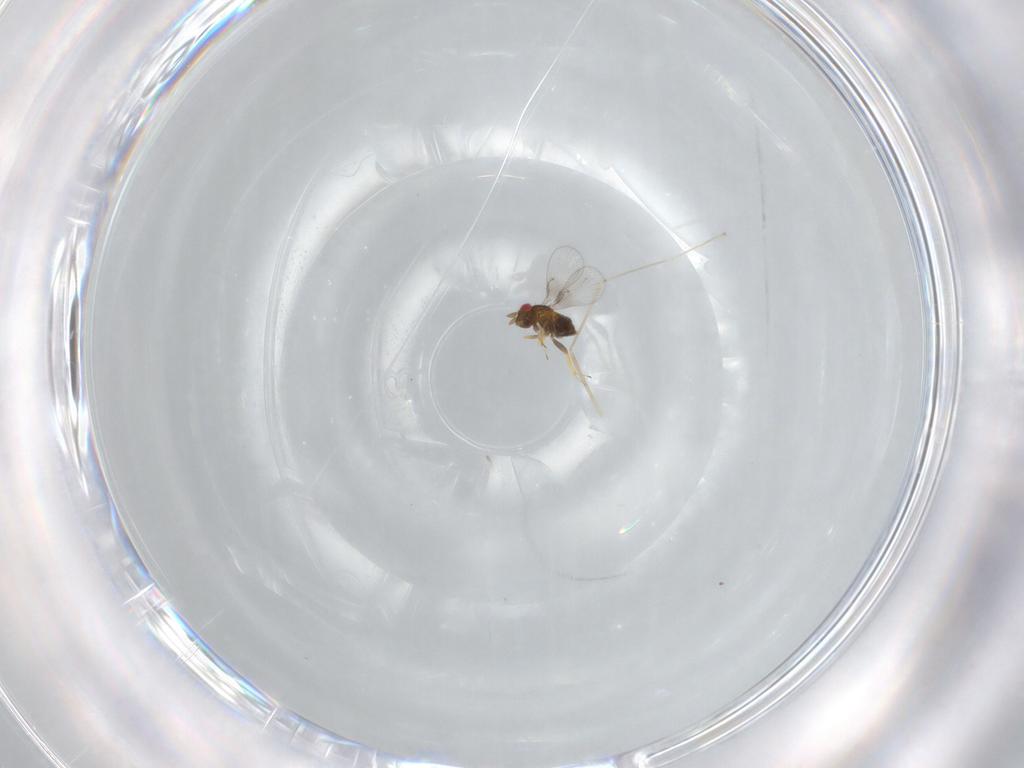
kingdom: Animalia
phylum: Arthropoda
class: Insecta
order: Hymenoptera
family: Trichogrammatidae
